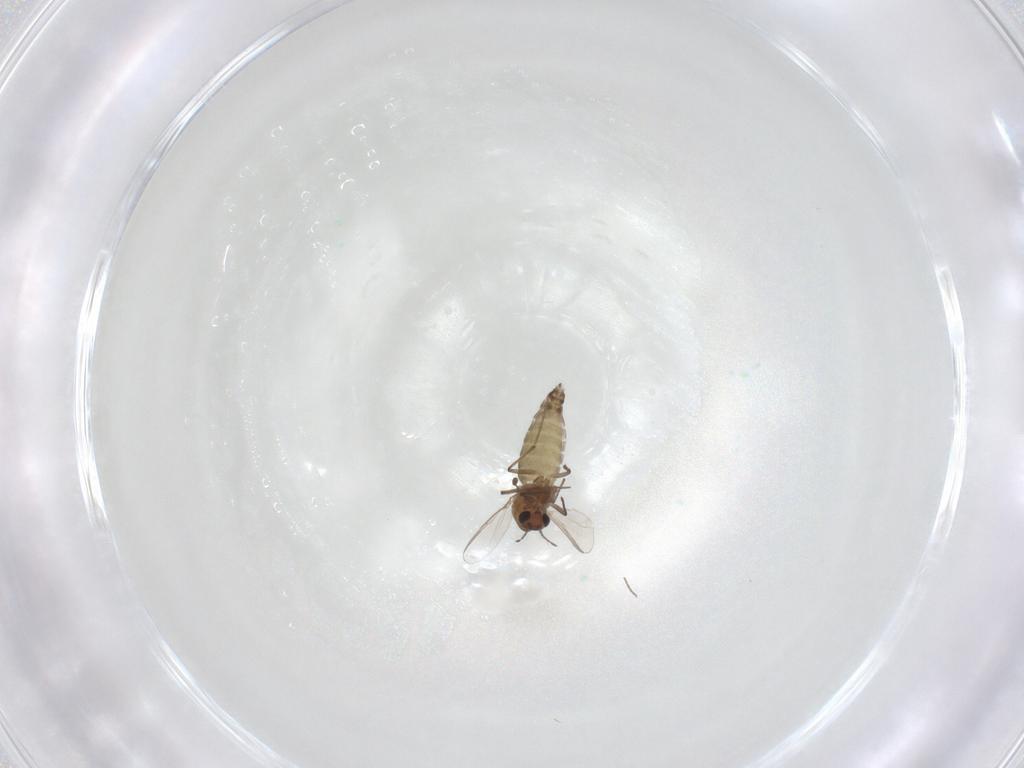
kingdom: Animalia
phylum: Arthropoda
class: Insecta
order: Diptera
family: Chironomidae
